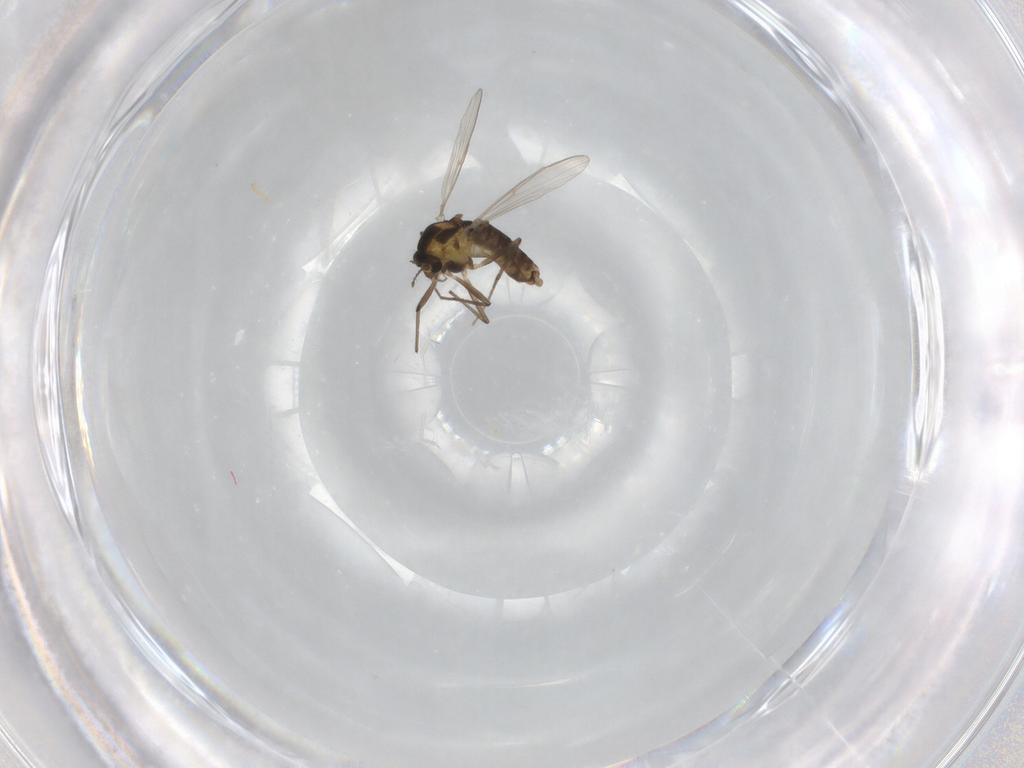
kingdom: Animalia
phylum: Arthropoda
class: Insecta
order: Diptera
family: Chironomidae
